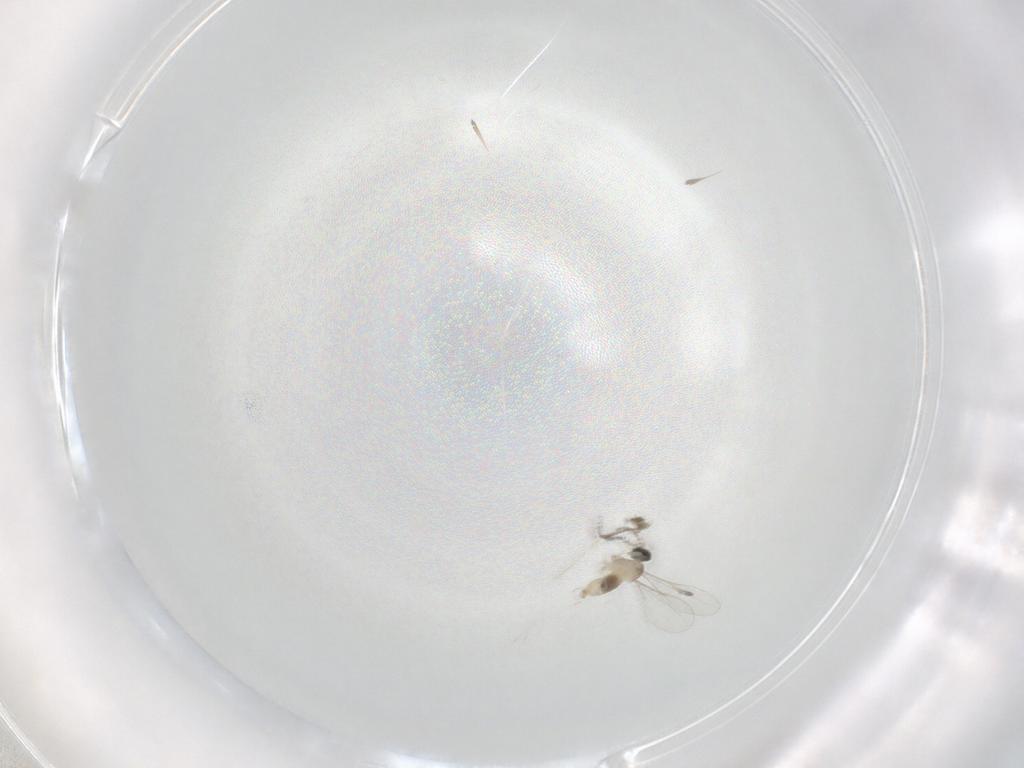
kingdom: Animalia
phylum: Arthropoda
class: Insecta
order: Diptera
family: Cecidomyiidae
